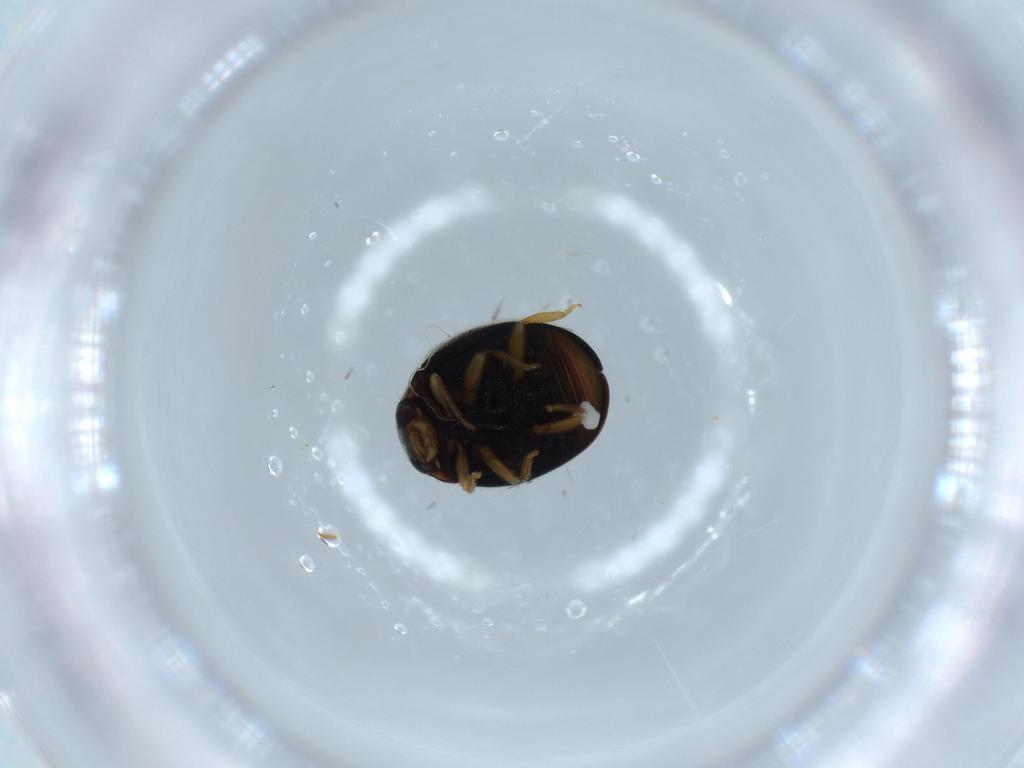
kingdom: Animalia
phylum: Arthropoda
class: Insecta
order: Coleoptera
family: Coccinellidae
